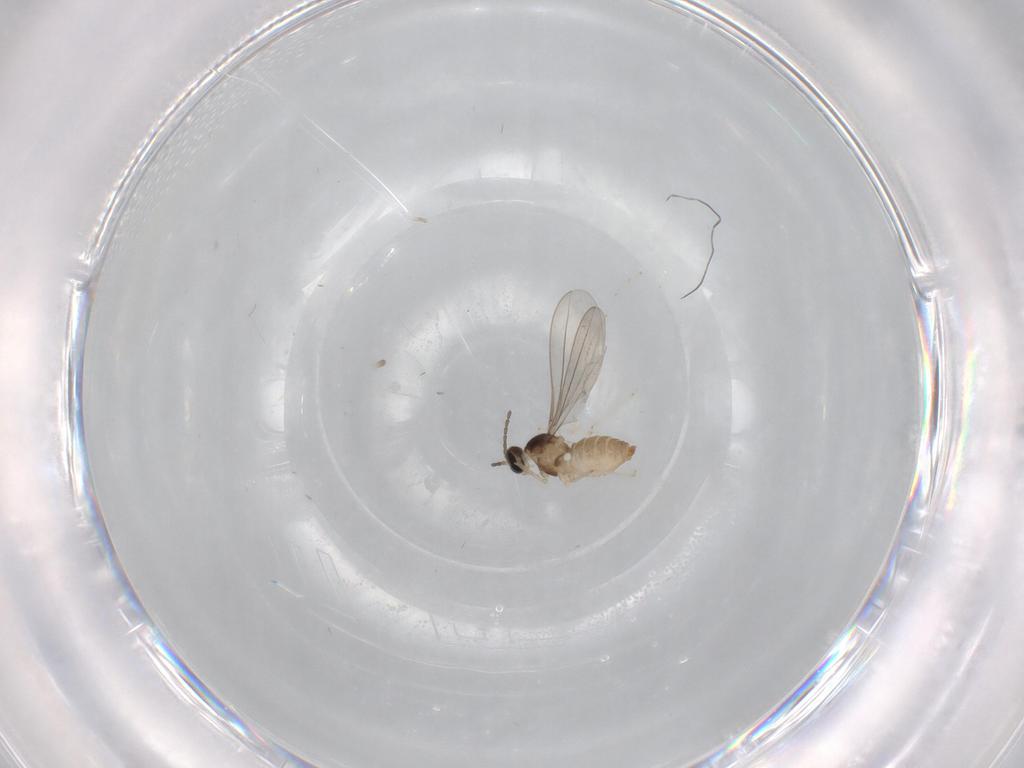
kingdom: Animalia
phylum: Arthropoda
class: Insecta
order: Diptera
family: Cecidomyiidae
